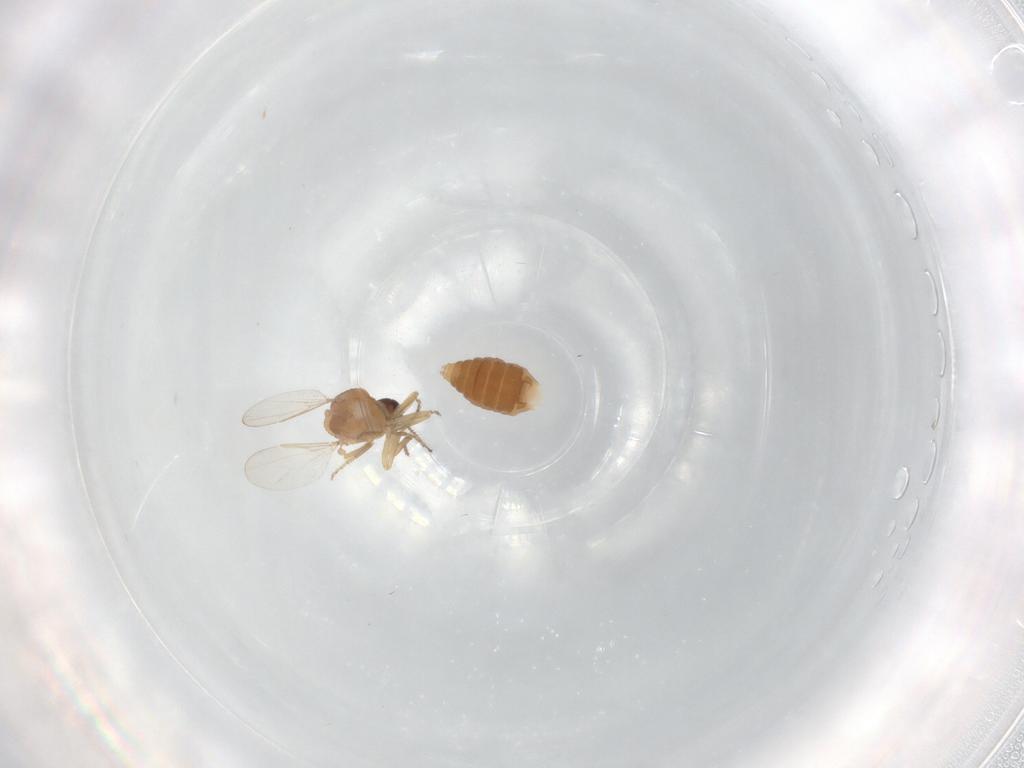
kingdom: Animalia
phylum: Arthropoda
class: Insecta
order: Diptera
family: Ceratopogonidae
